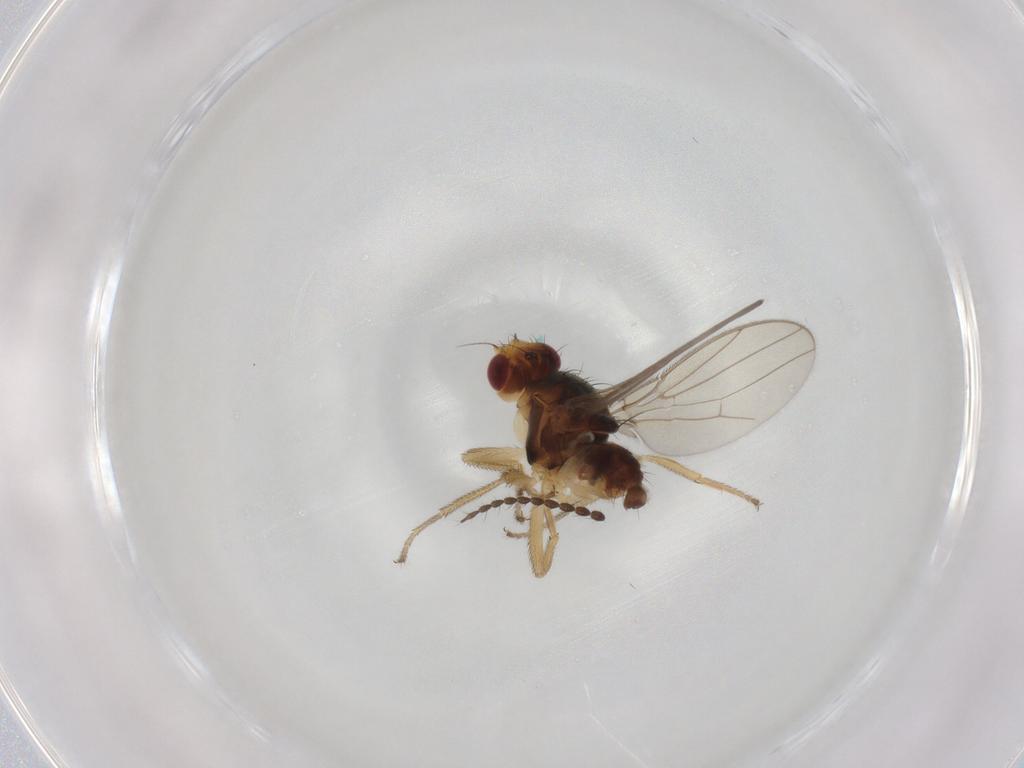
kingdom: Animalia
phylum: Arthropoda
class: Insecta
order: Diptera
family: Chloropidae
